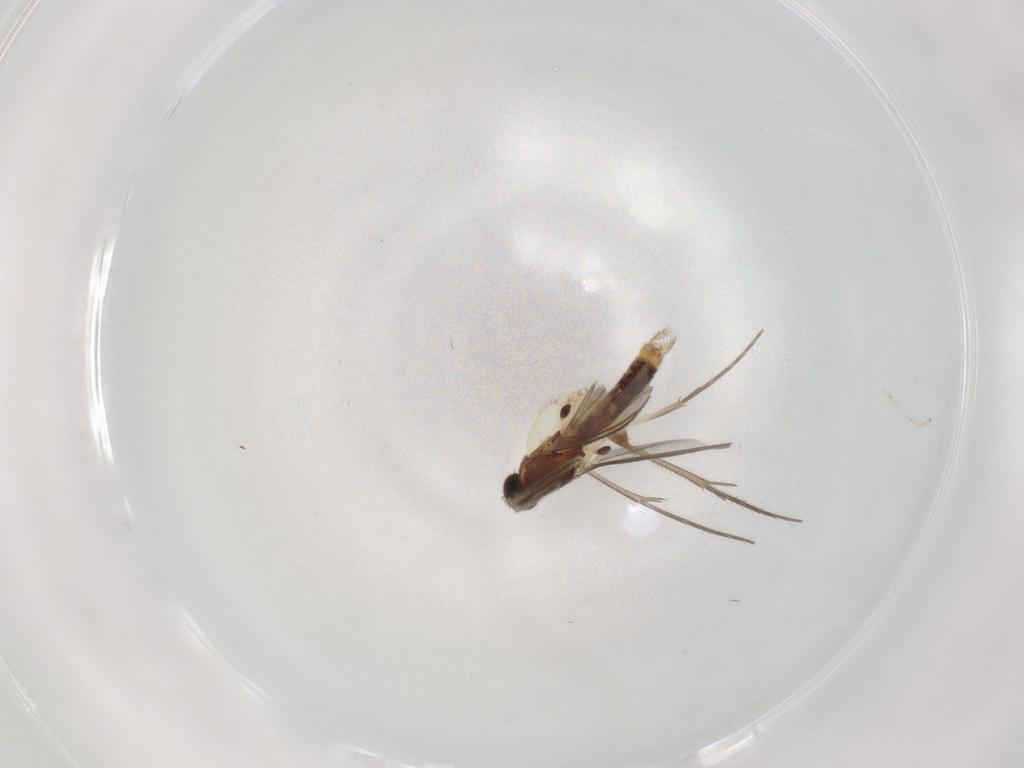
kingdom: Animalia
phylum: Arthropoda
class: Insecta
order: Diptera
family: Mycetophilidae
